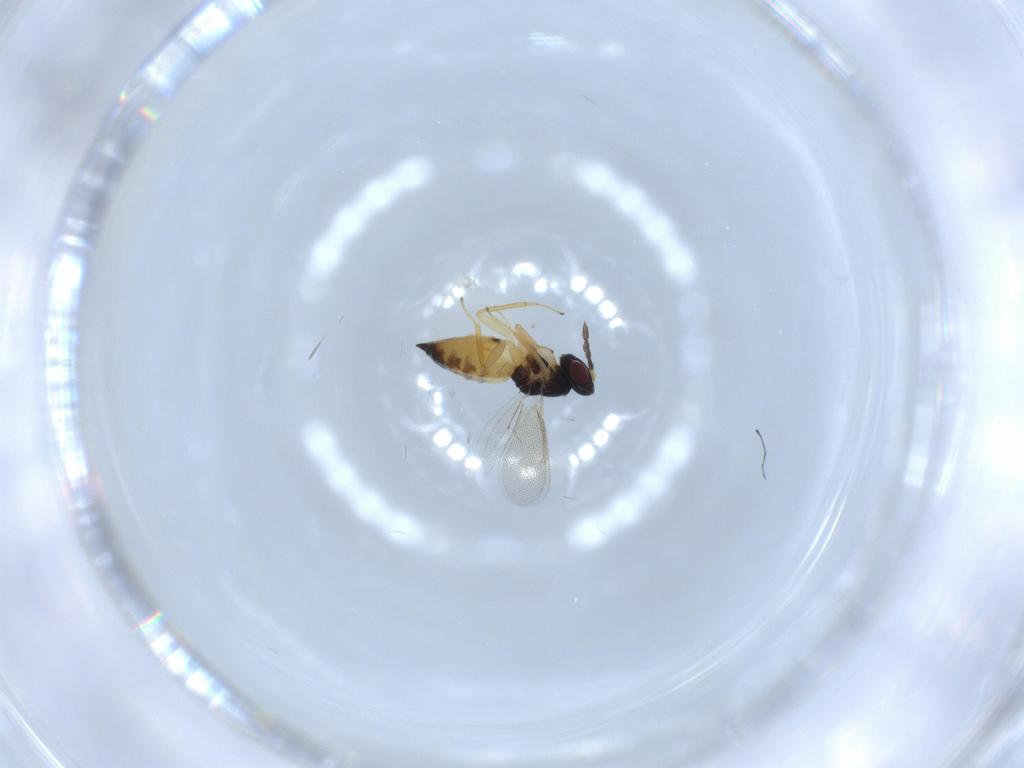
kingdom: Animalia
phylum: Arthropoda
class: Insecta
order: Hymenoptera
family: Eulophidae
